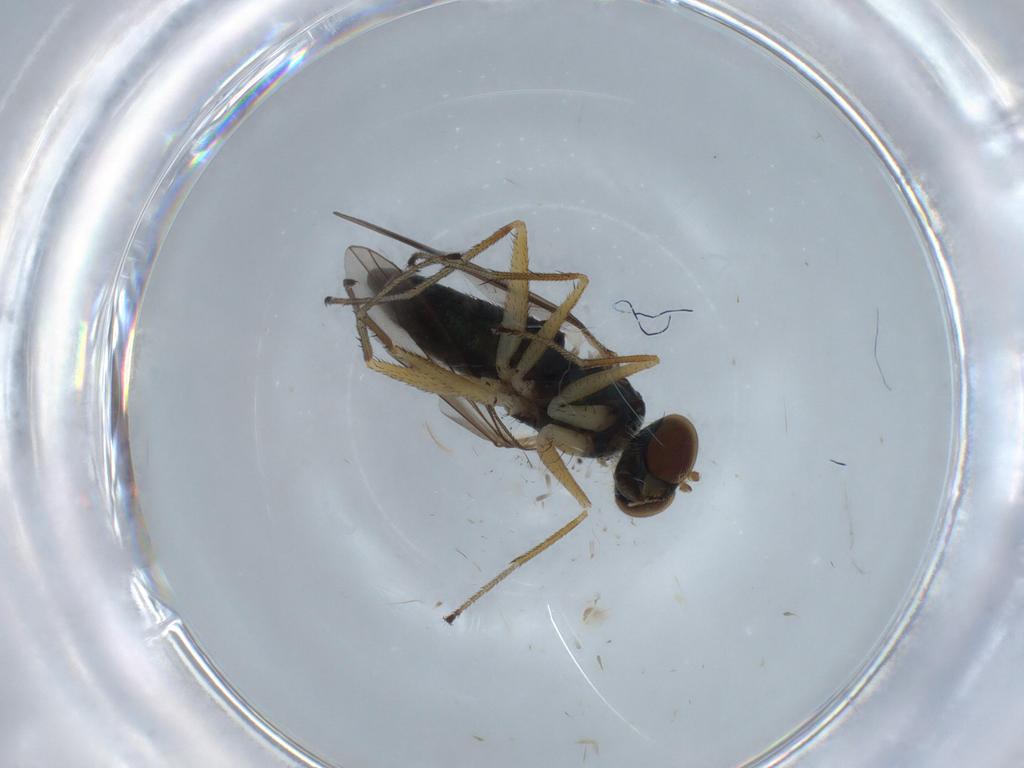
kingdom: Animalia
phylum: Arthropoda
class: Insecta
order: Diptera
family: Dolichopodidae
